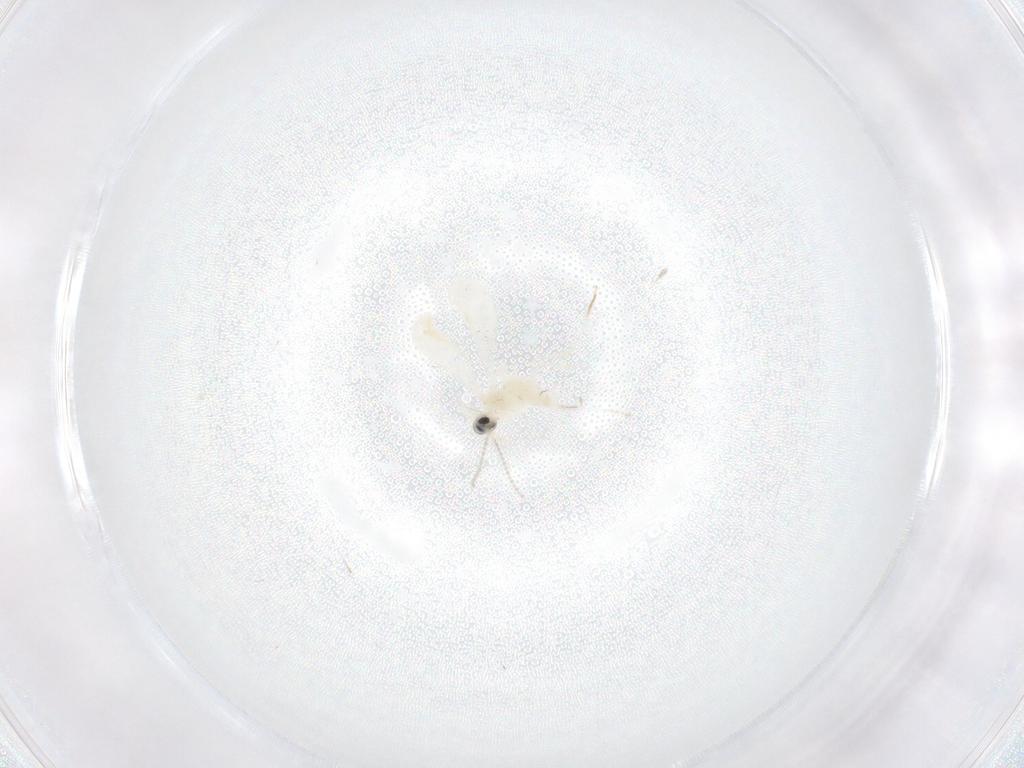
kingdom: Animalia
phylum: Arthropoda
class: Insecta
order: Diptera
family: Cecidomyiidae
